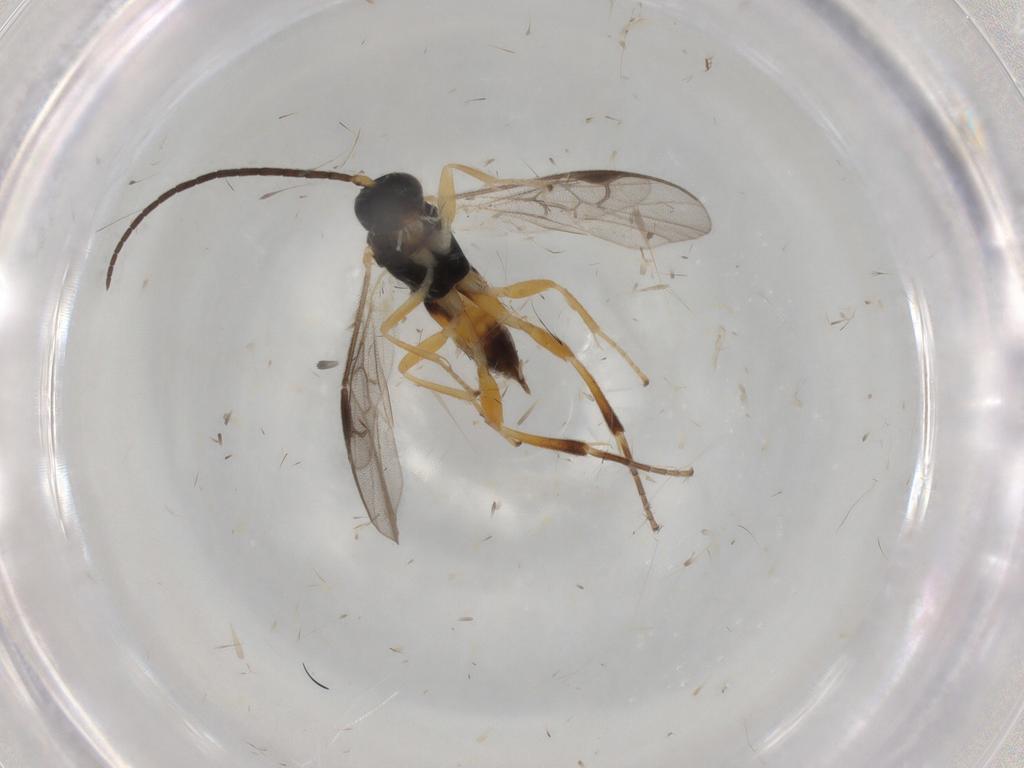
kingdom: Animalia
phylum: Arthropoda
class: Insecta
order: Hymenoptera
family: Braconidae
